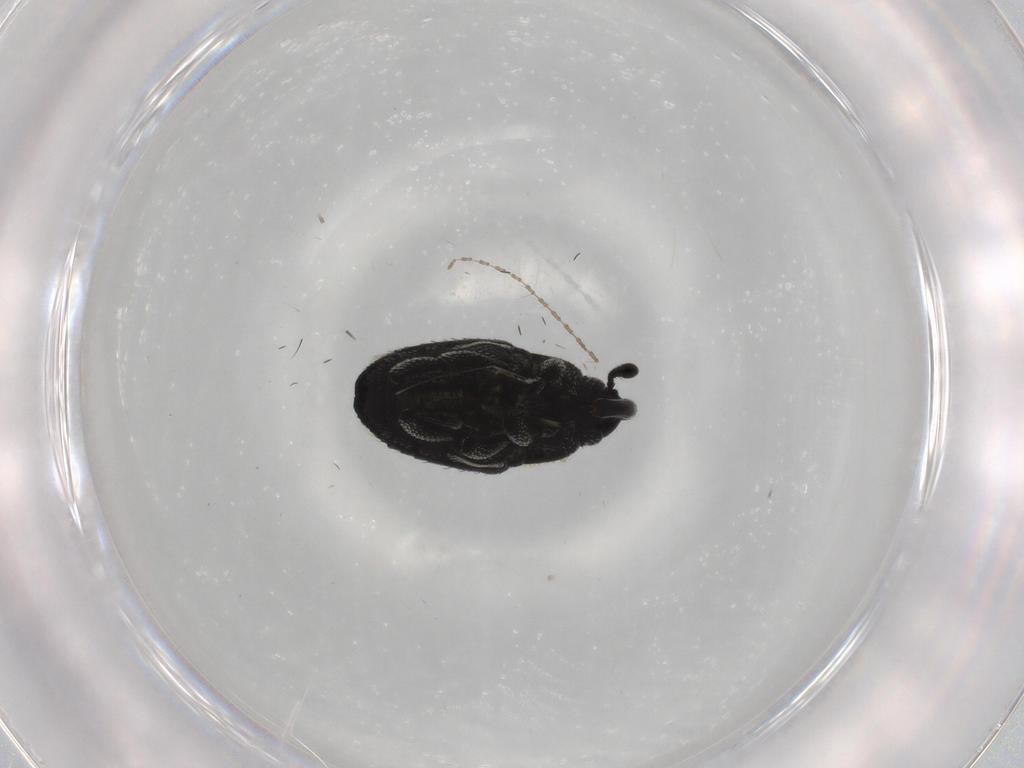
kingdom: Animalia
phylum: Arthropoda
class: Insecta
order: Coleoptera
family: Curculionidae
